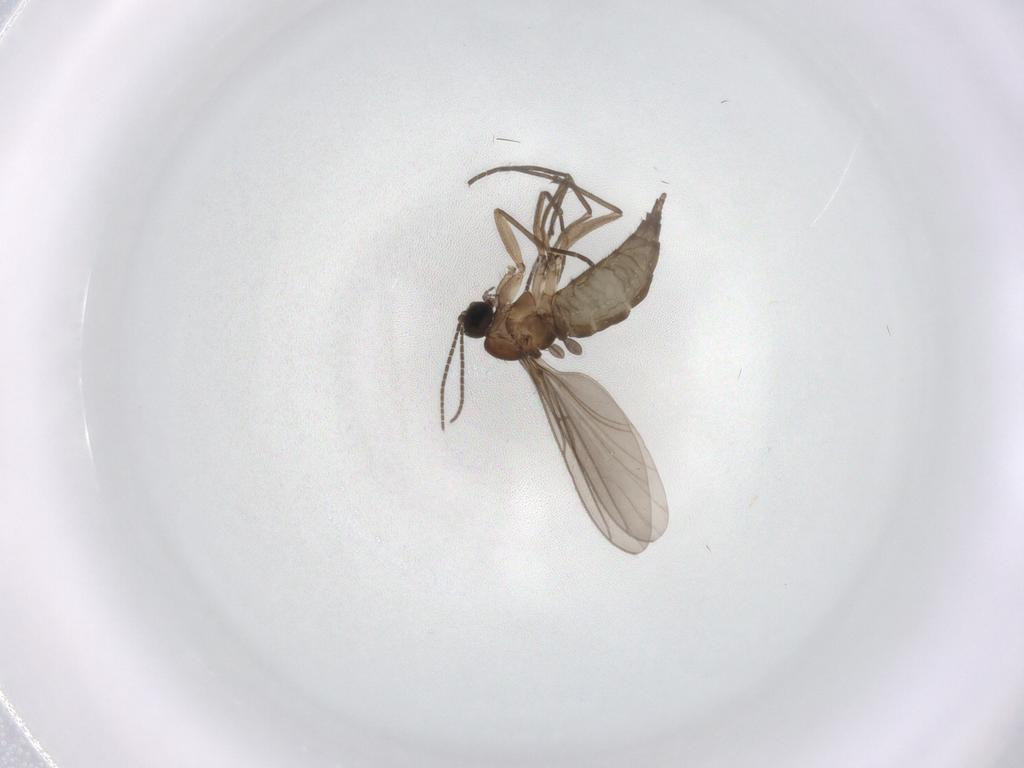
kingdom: Animalia
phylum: Arthropoda
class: Insecta
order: Diptera
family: Sciaridae
